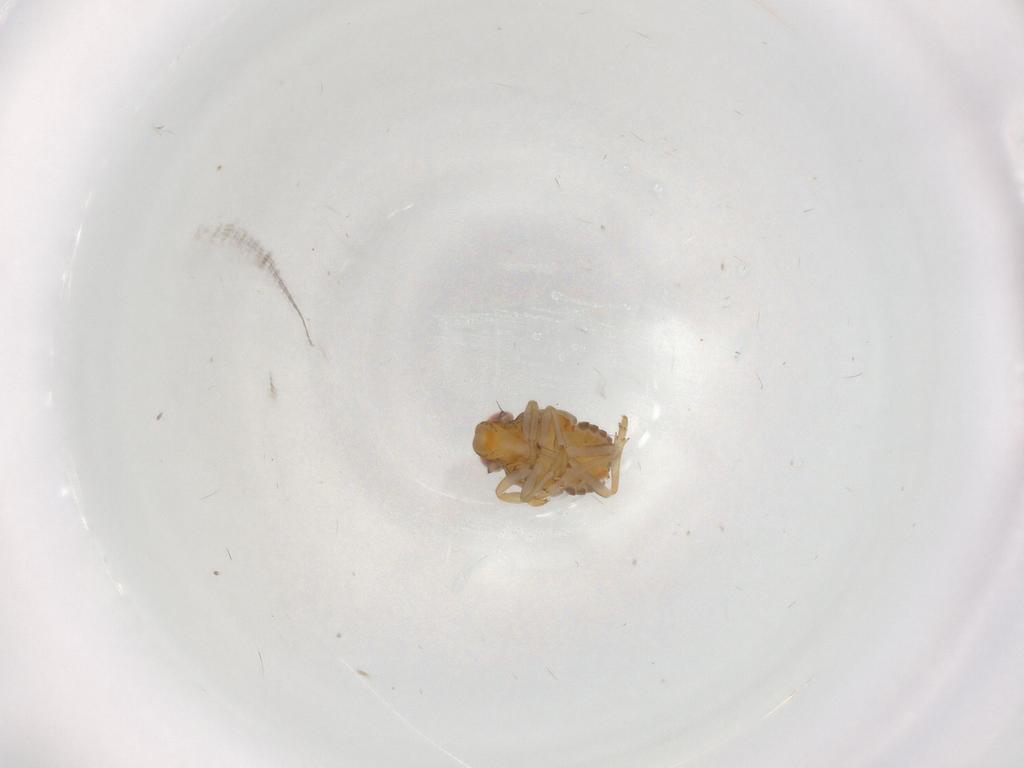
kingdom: Animalia
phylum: Arthropoda
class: Insecta
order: Hemiptera
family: Issidae
